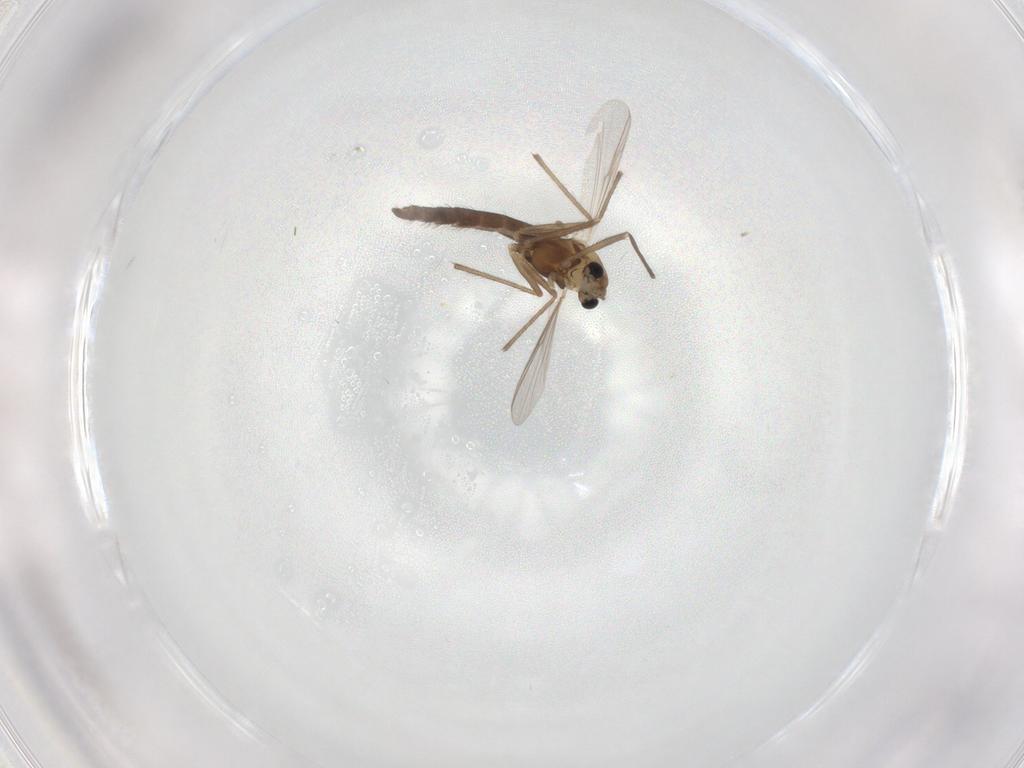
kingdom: Animalia
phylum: Arthropoda
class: Insecta
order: Diptera
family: Chironomidae
